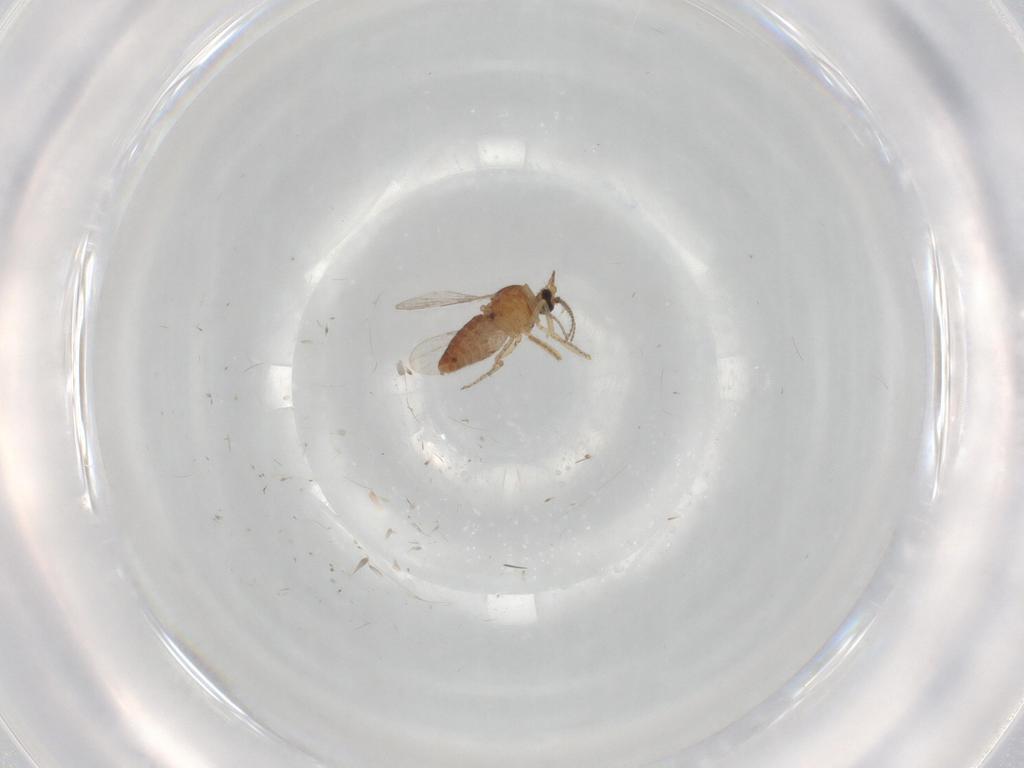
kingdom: Animalia
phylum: Arthropoda
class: Insecta
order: Diptera
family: Ceratopogonidae
